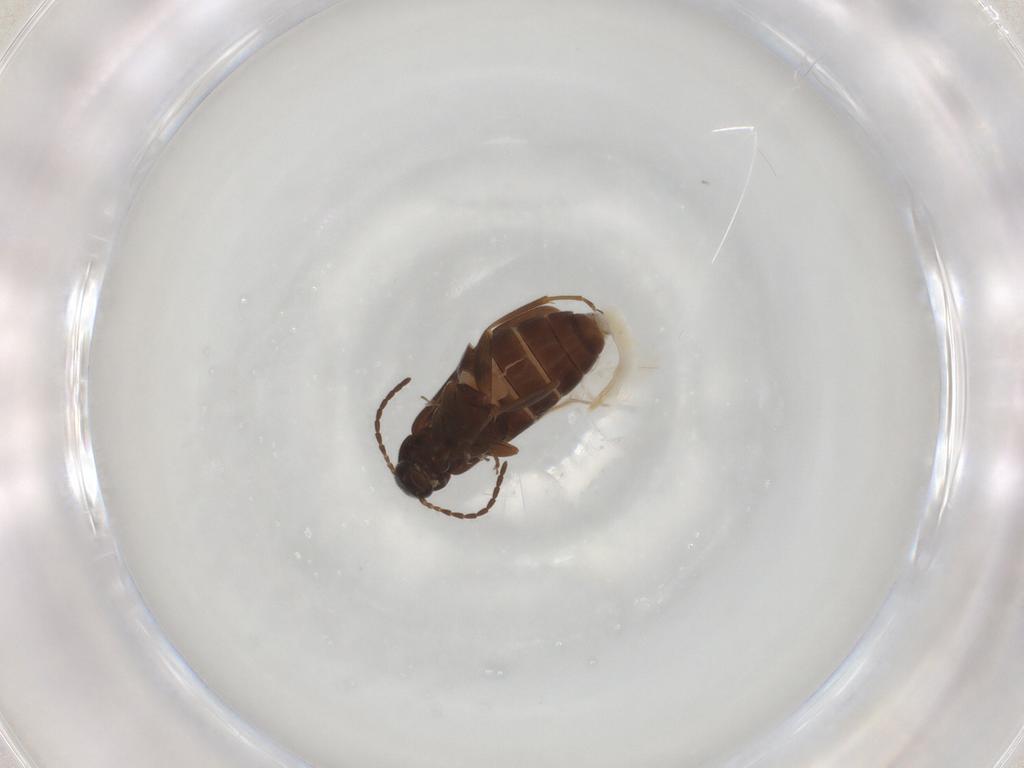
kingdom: Animalia
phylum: Arthropoda
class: Insecta
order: Coleoptera
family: Scraptiidae
